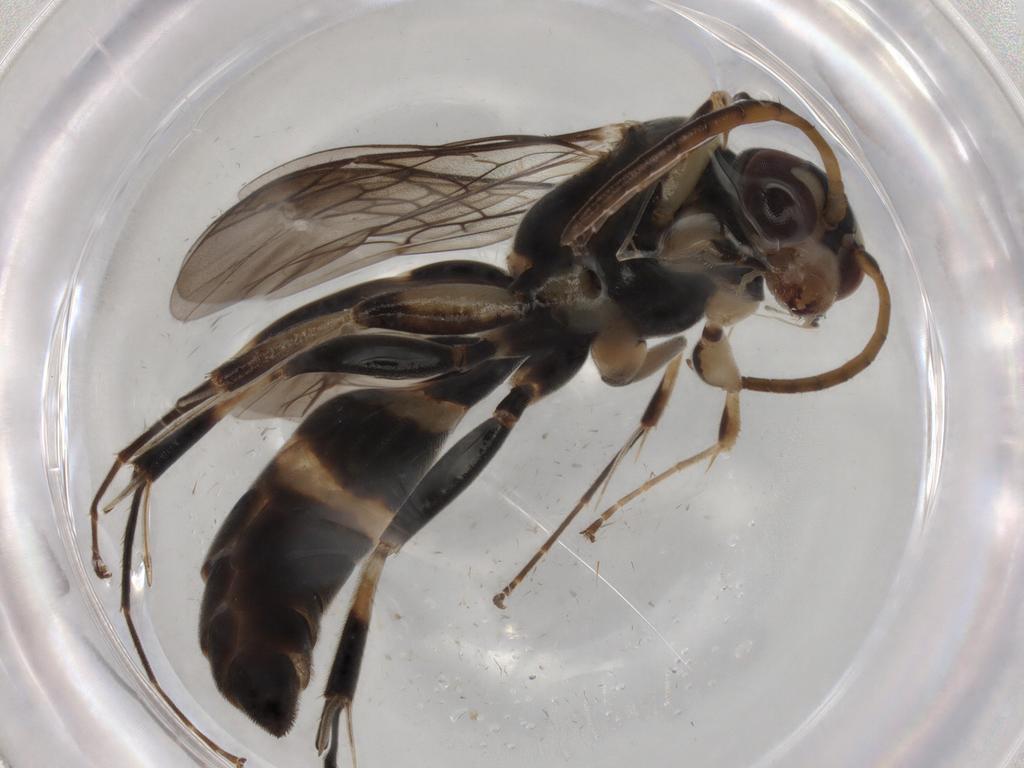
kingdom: Animalia
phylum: Arthropoda
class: Insecta
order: Hymenoptera
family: Rhopalosomatidae
